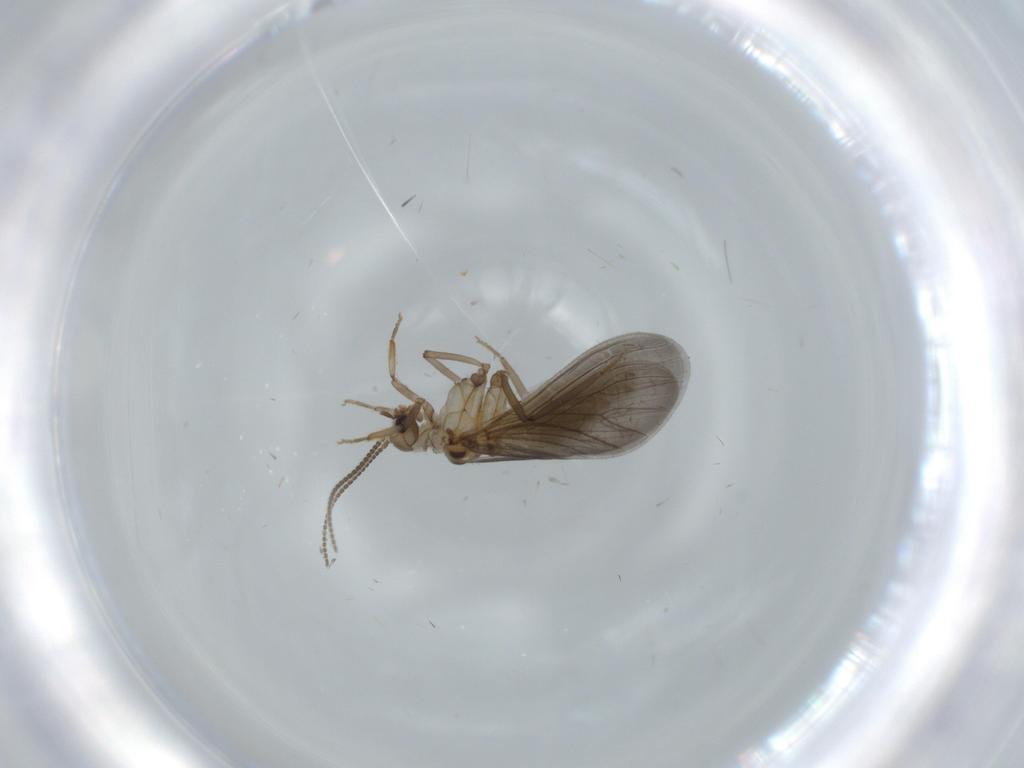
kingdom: Animalia
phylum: Arthropoda
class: Insecta
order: Neuroptera
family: Coniopterygidae
